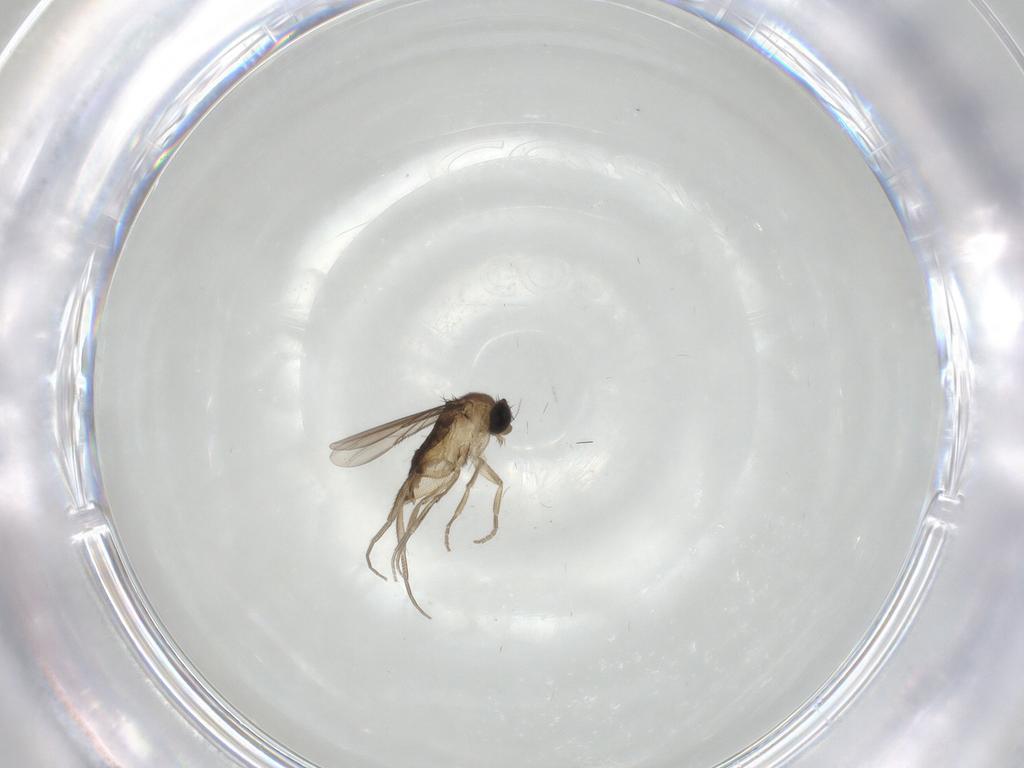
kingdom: Animalia
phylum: Arthropoda
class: Insecta
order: Diptera
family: Phoridae
